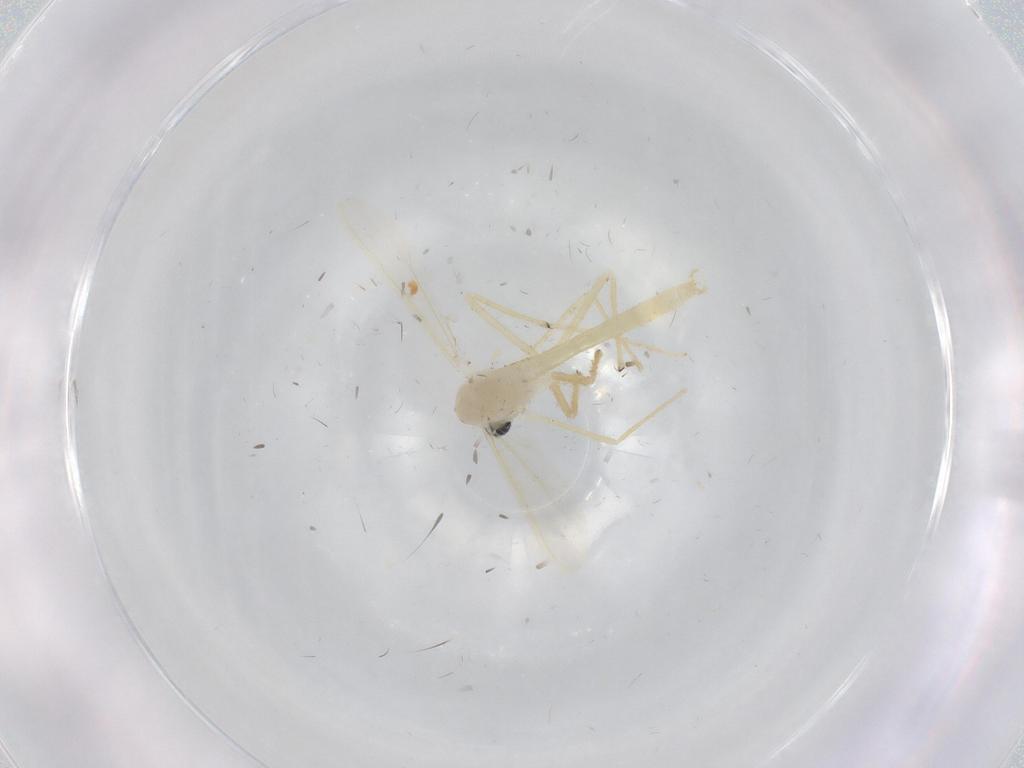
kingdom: Animalia
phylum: Arthropoda
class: Insecta
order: Diptera
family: Chironomidae
